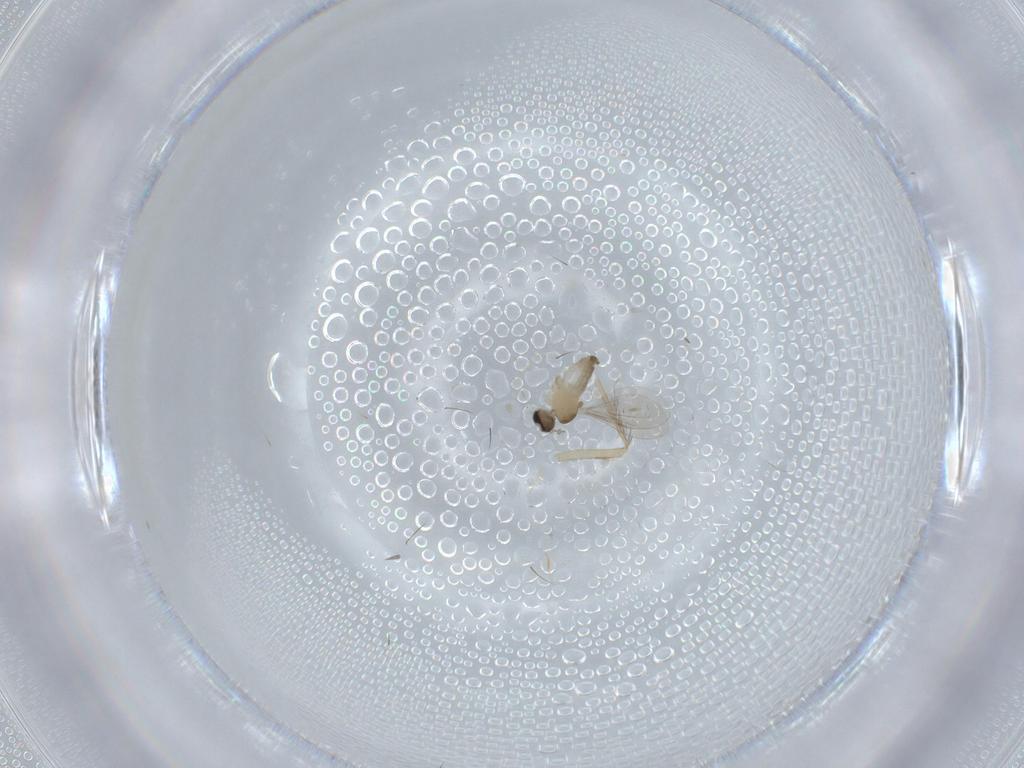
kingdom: Animalia
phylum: Arthropoda
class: Insecta
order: Diptera
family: Cecidomyiidae
